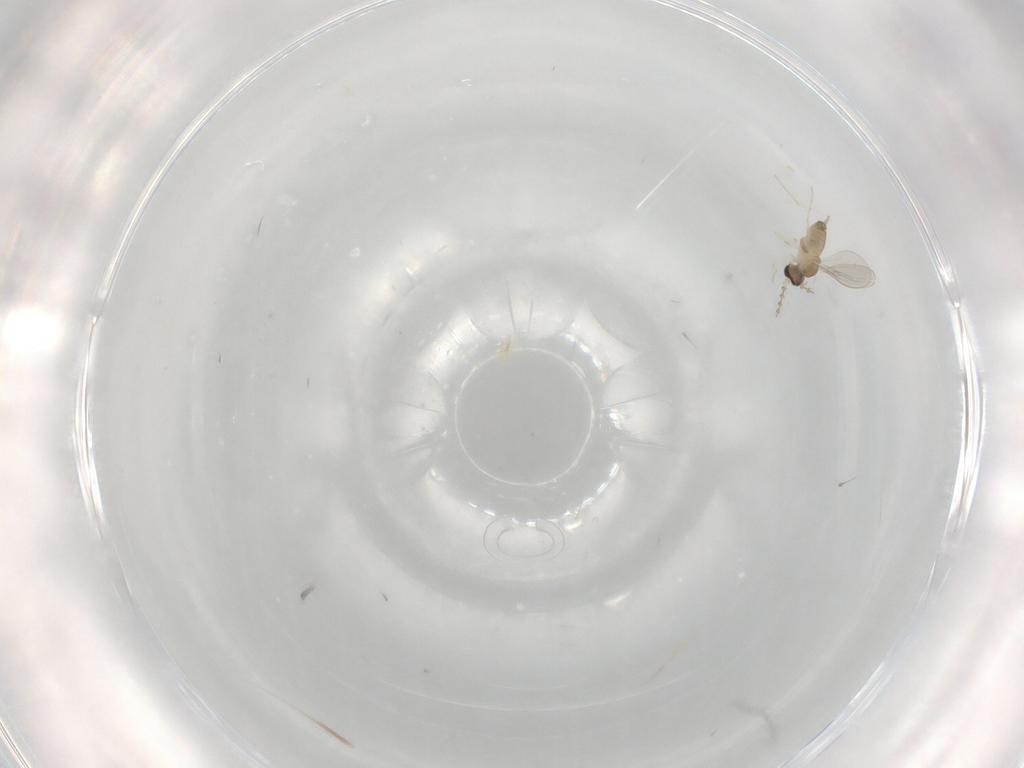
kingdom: Animalia
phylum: Arthropoda
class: Insecta
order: Diptera
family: Cecidomyiidae
